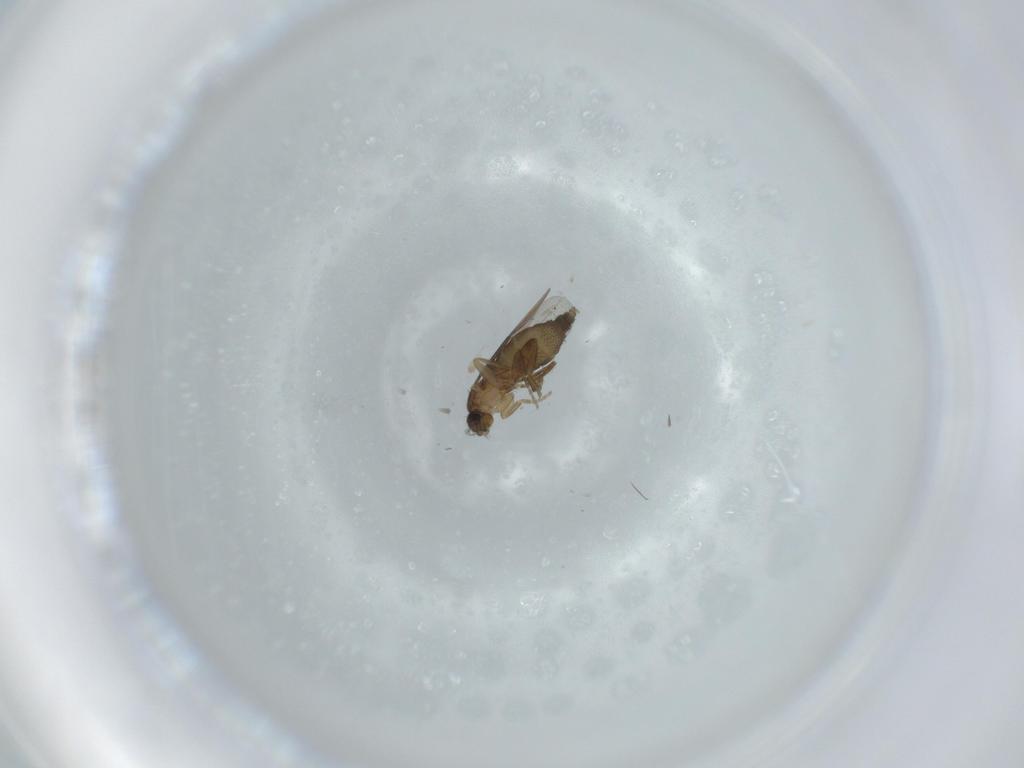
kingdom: Animalia
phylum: Arthropoda
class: Insecta
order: Diptera
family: Phoridae
